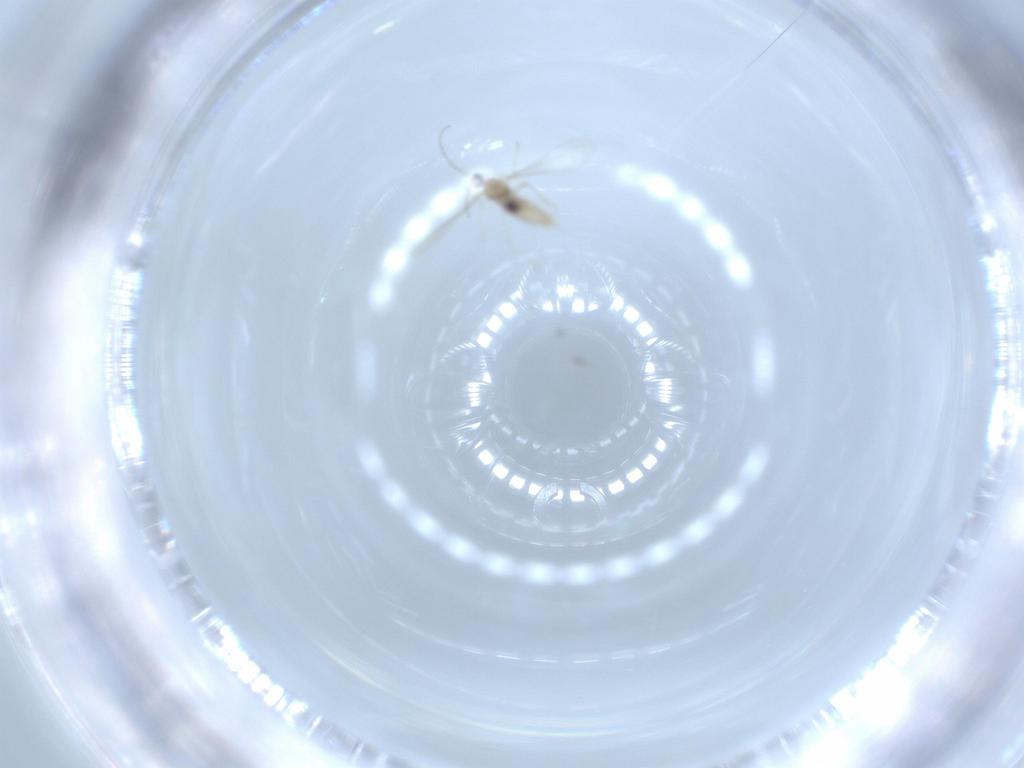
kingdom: Animalia
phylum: Arthropoda
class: Insecta
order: Diptera
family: Cecidomyiidae
